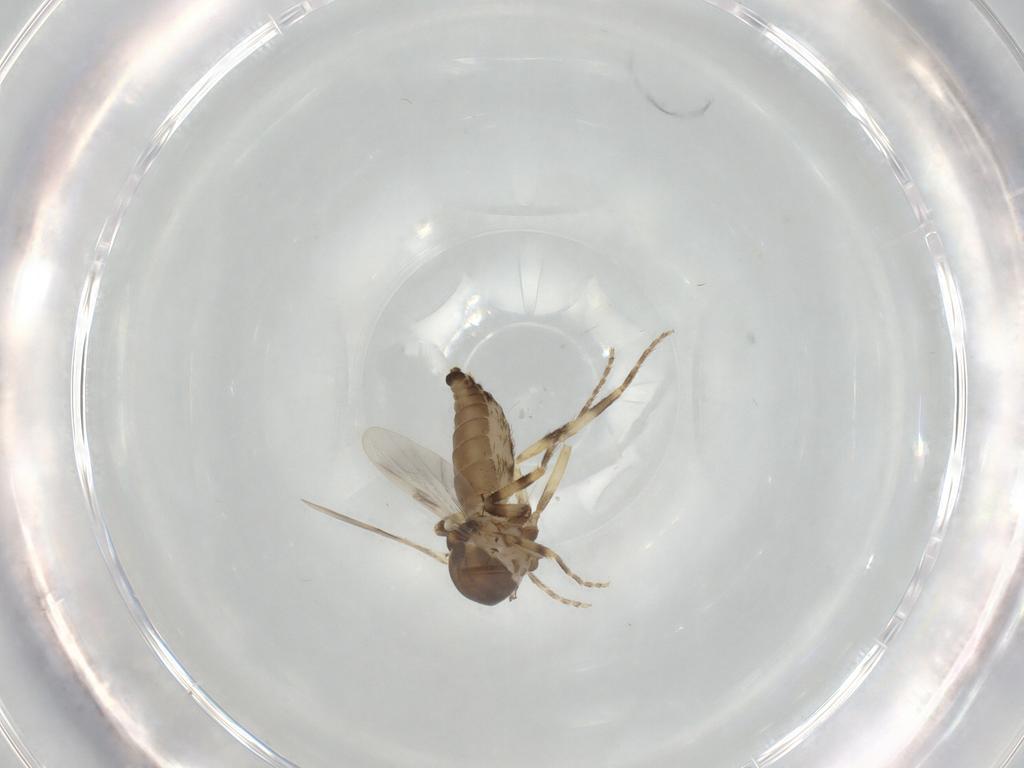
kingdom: Animalia
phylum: Arthropoda
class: Insecta
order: Diptera
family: Ceratopogonidae
